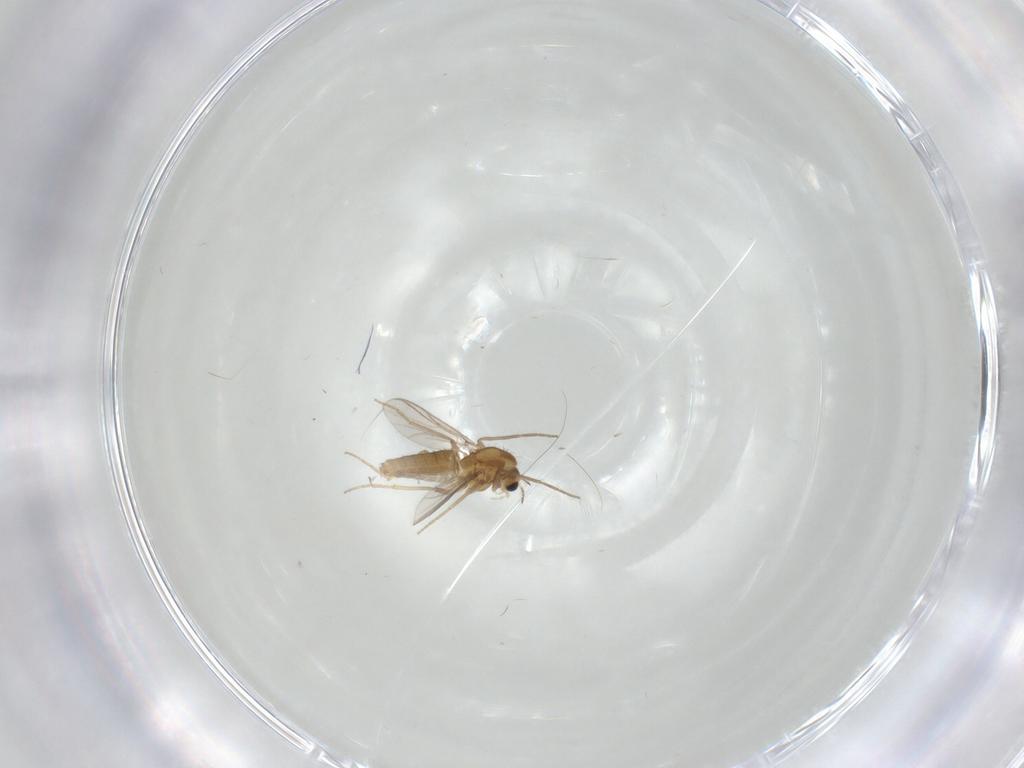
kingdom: Animalia
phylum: Arthropoda
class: Insecta
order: Diptera
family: Chironomidae
